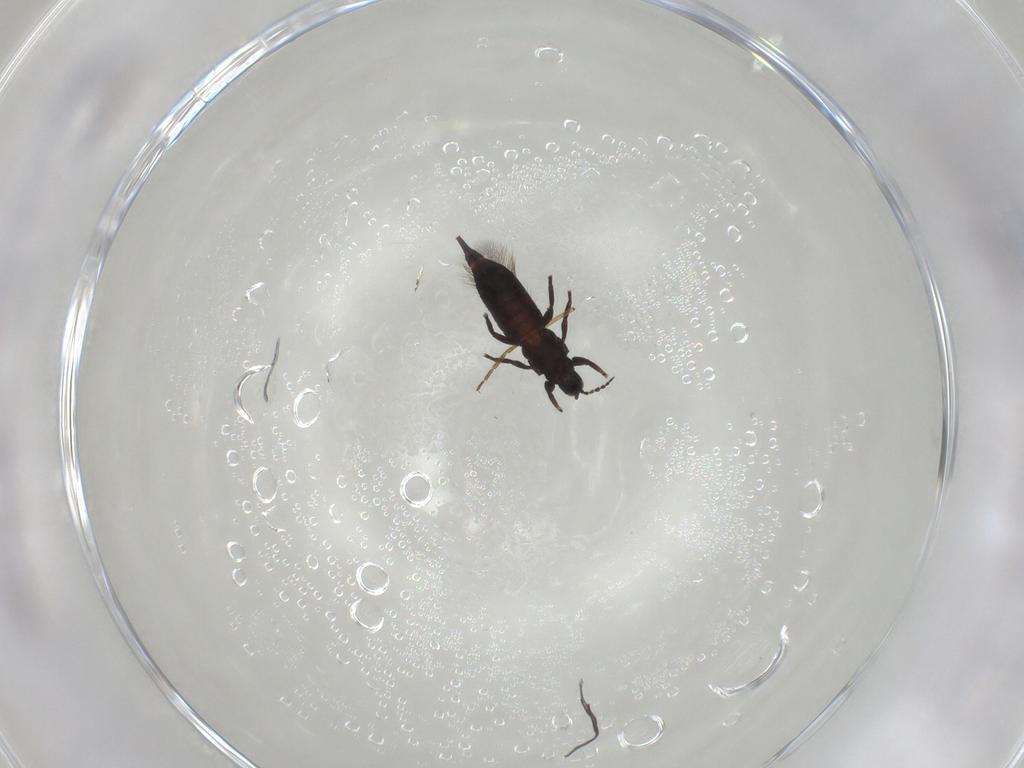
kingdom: Animalia
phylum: Arthropoda
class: Insecta
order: Thysanoptera
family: Phlaeothripidae
